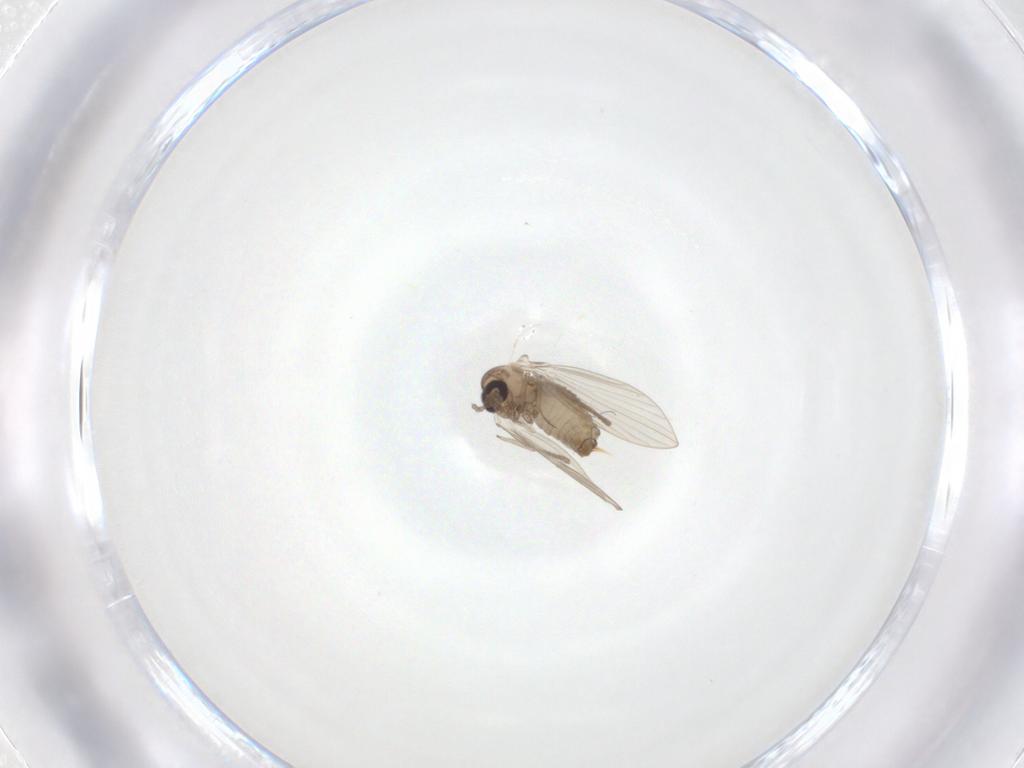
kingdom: Animalia
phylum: Arthropoda
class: Insecta
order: Diptera
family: Psychodidae
